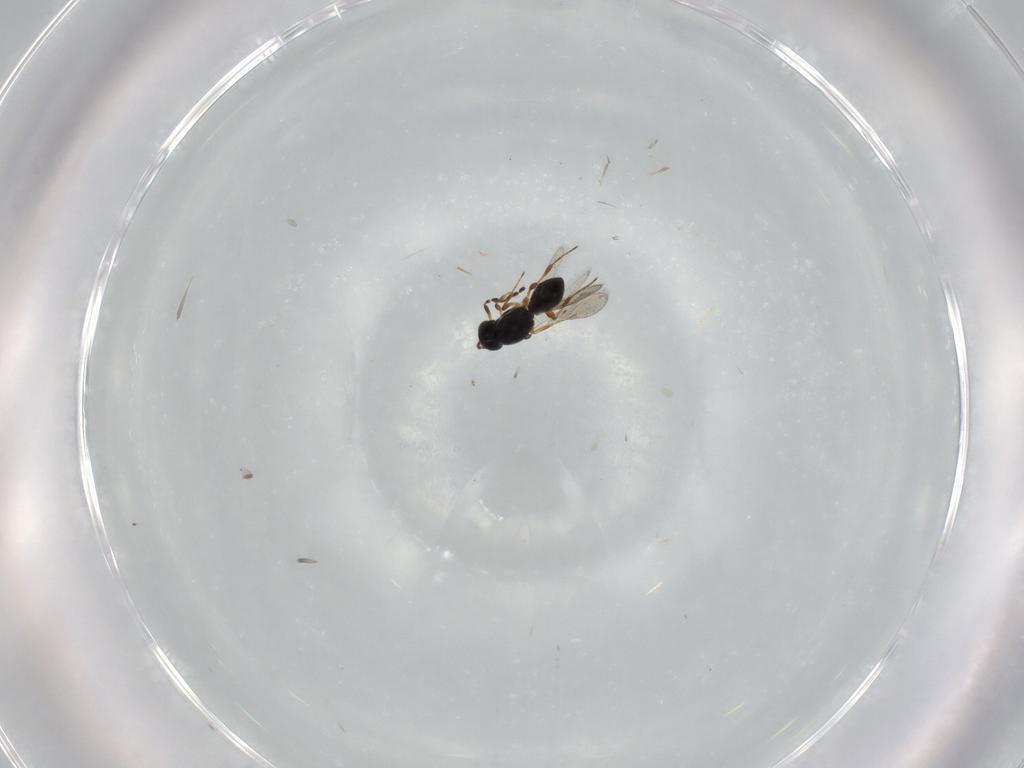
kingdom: Animalia
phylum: Arthropoda
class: Insecta
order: Hymenoptera
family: Platygastridae
